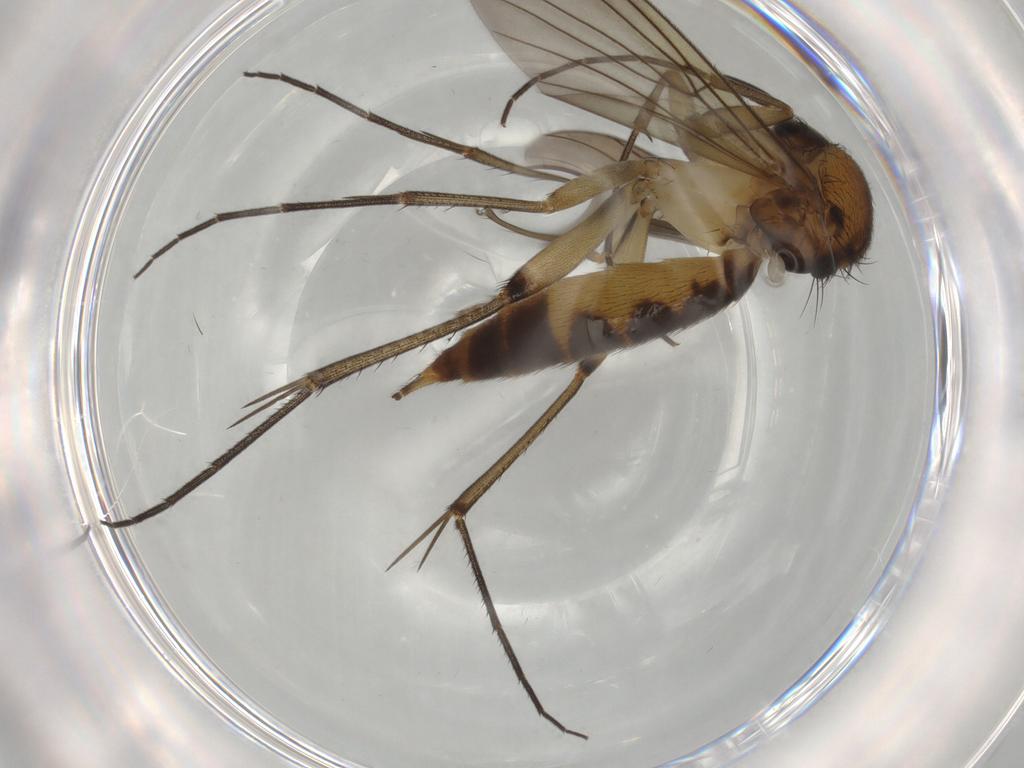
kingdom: Animalia
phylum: Arthropoda
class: Insecta
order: Diptera
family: Mycetophilidae
